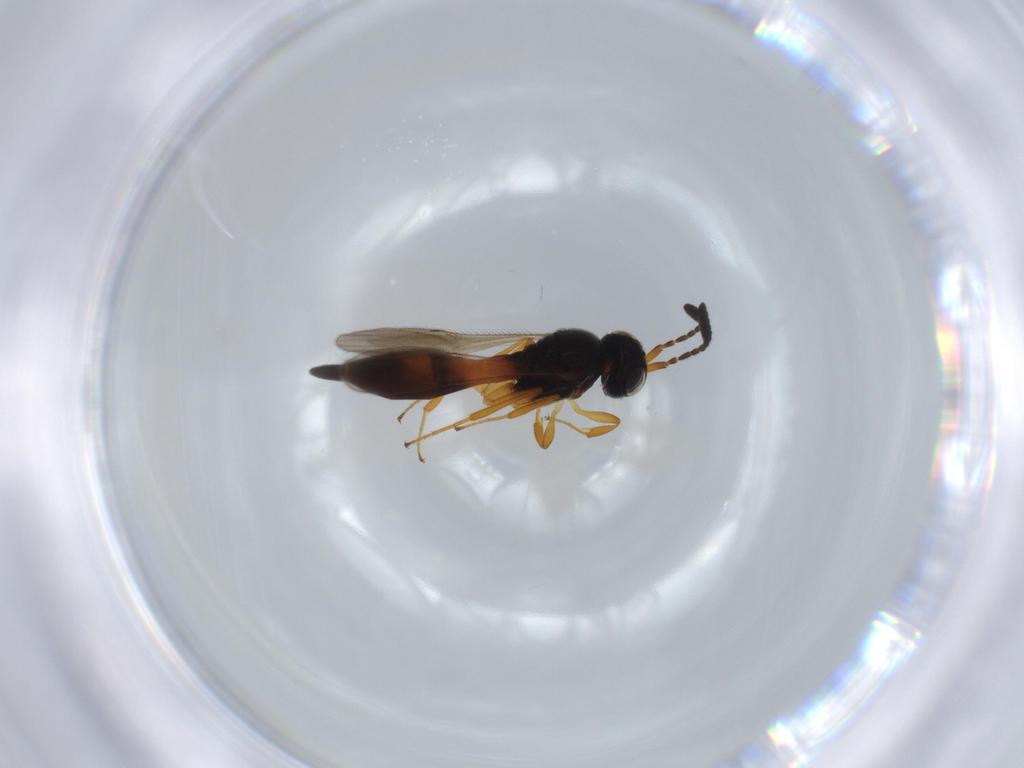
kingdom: Animalia
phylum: Arthropoda
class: Insecta
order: Hymenoptera
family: Scelionidae
